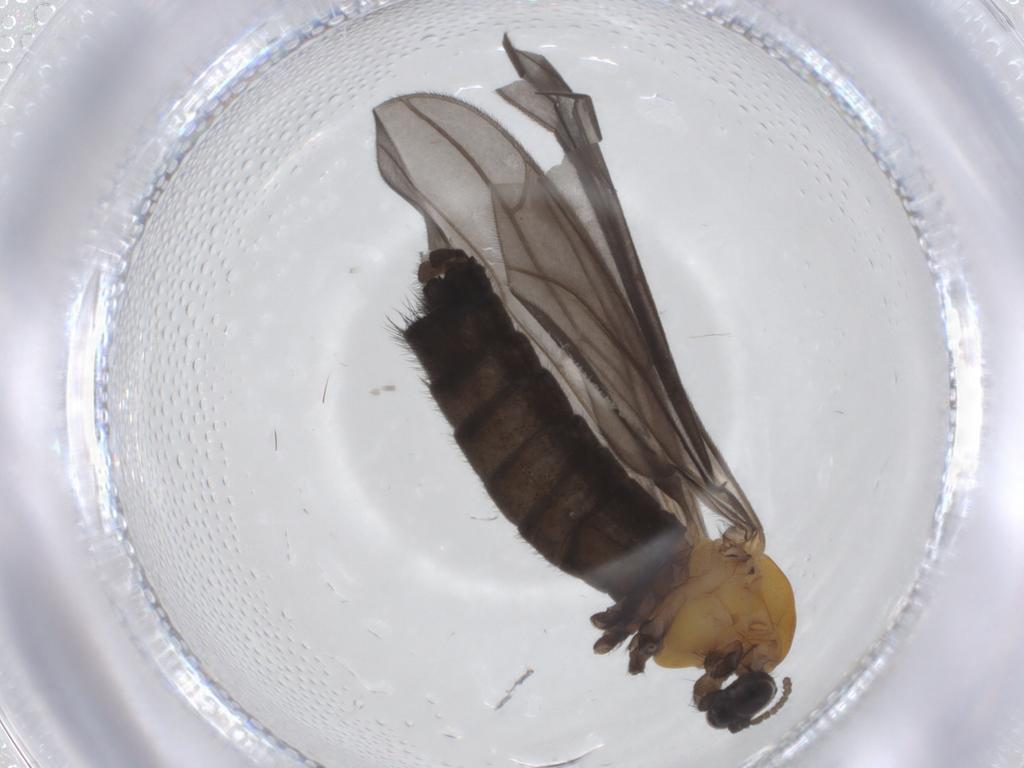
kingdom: Animalia
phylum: Arthropoda
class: Insecta
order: Diptera
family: Bibionidae
